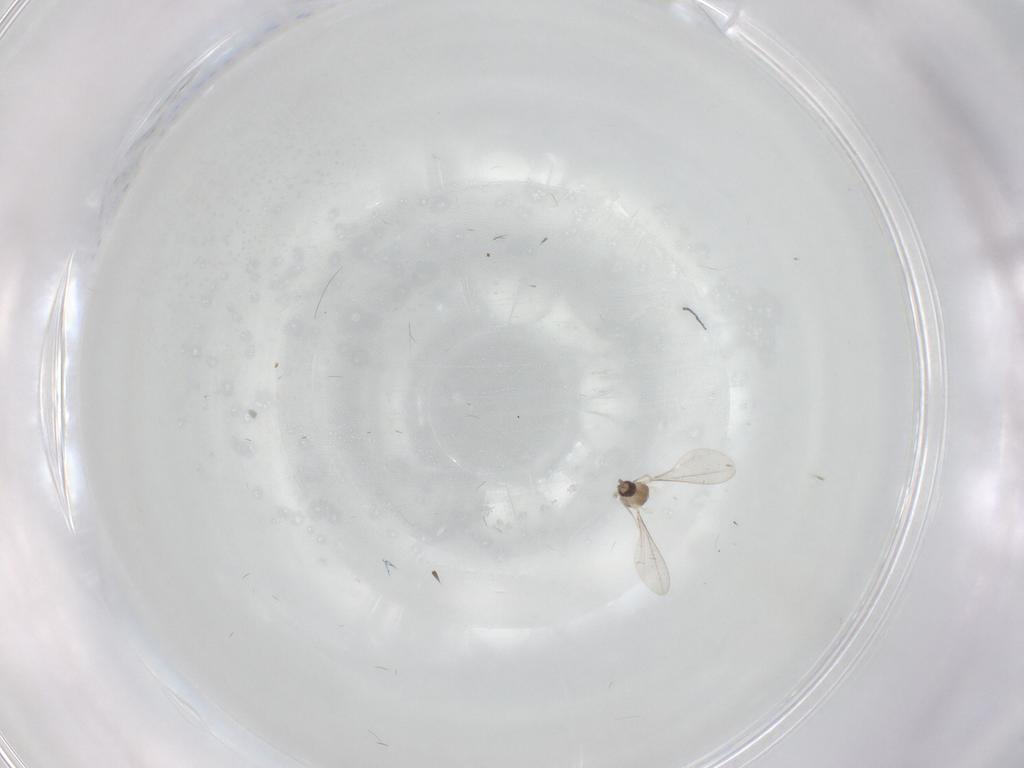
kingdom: Animalia
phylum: Arthropoda
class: Insecta
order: Diptera
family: Cecidomyiidae
